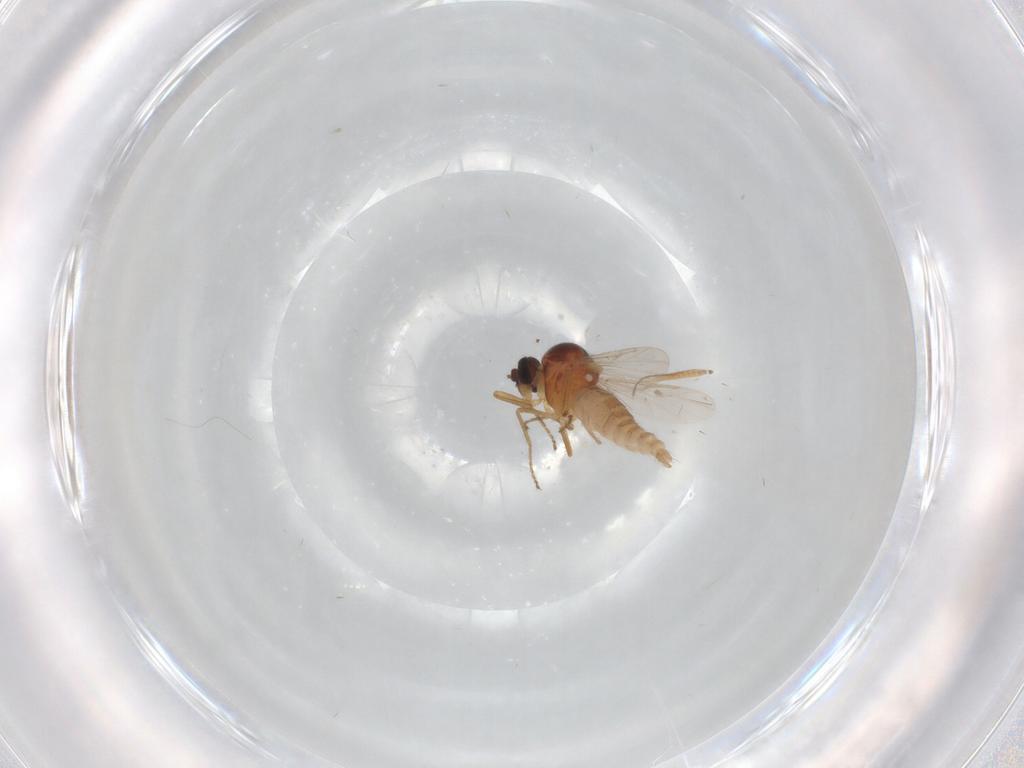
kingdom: Animalia
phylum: Arthropoda
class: Insecta
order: Diptera
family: Chironomidae
